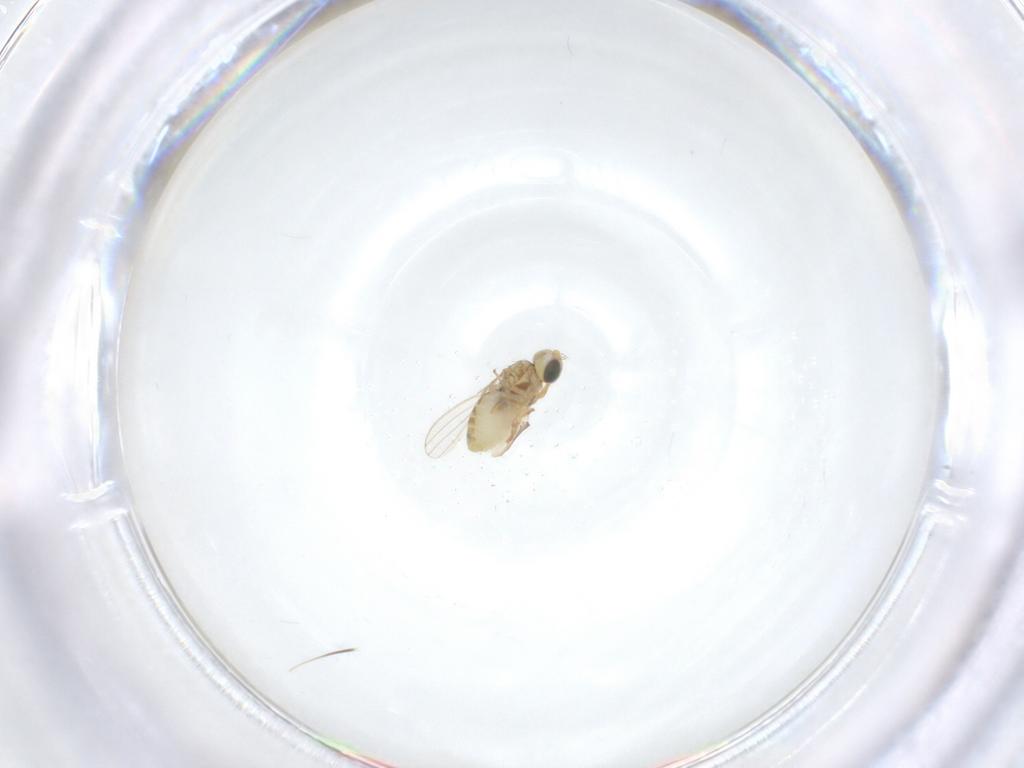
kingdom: Animalia
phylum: Arthropoda
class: Insecta
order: Diptera
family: Chyromyidae
